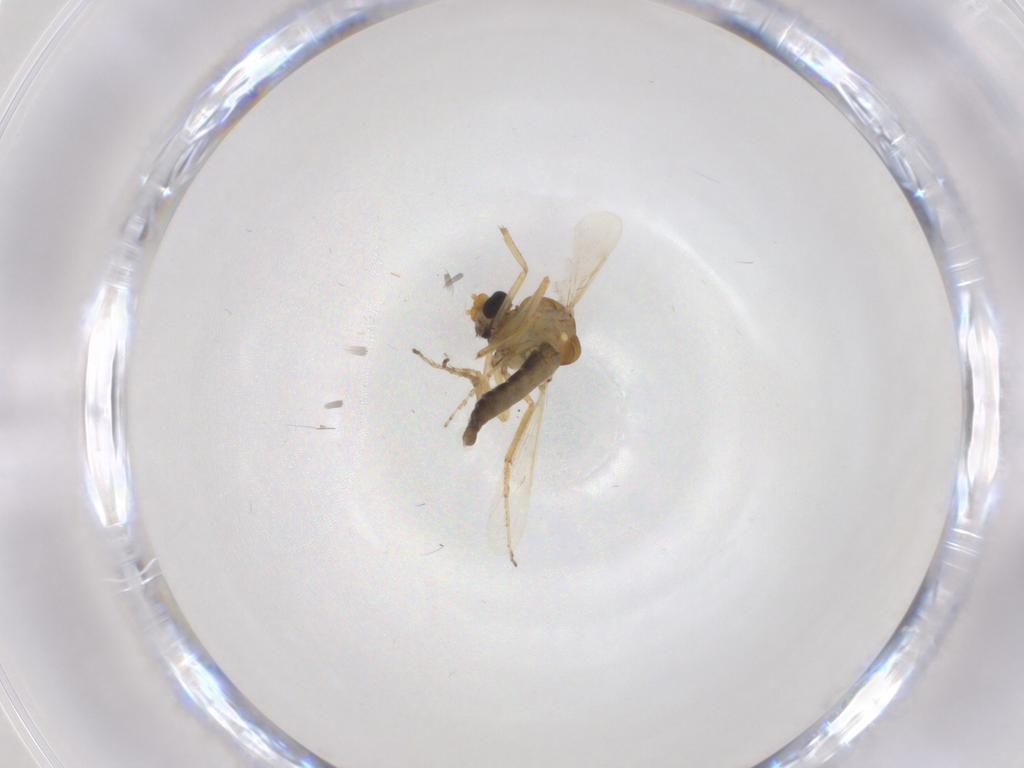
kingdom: Animalia
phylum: Arthropoda
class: Insecta
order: Diptera
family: Ceratopogonidae
